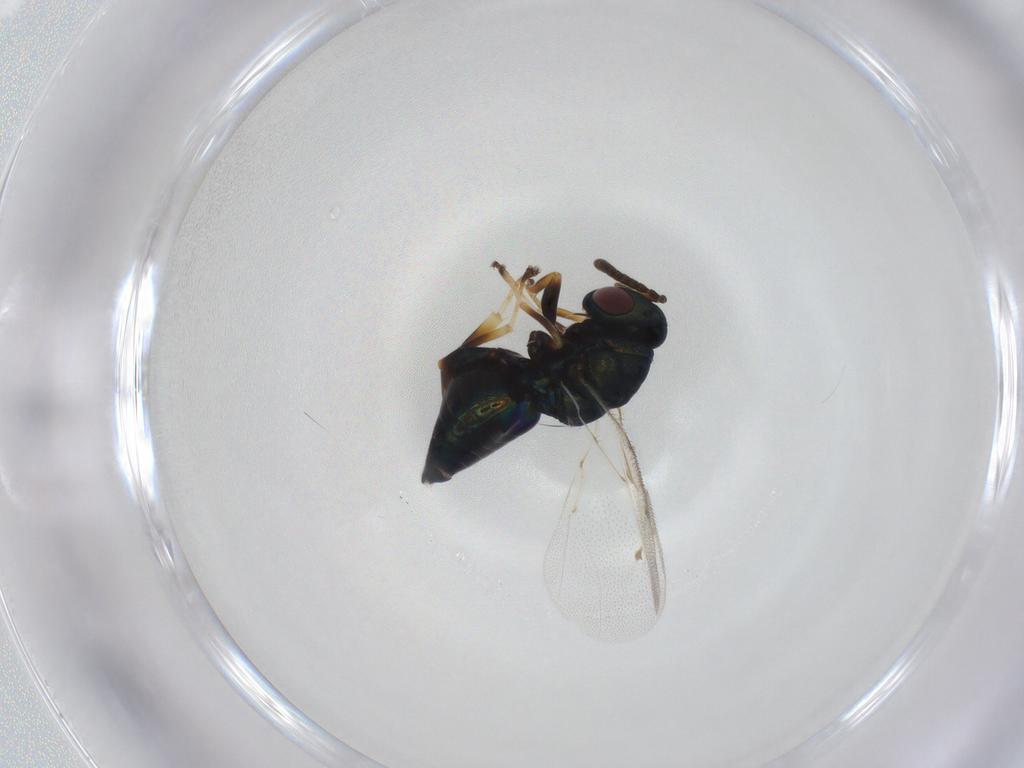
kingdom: Animalia
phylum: Arthropoda
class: Insecta
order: Hymenoptera
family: Pteromalidae
